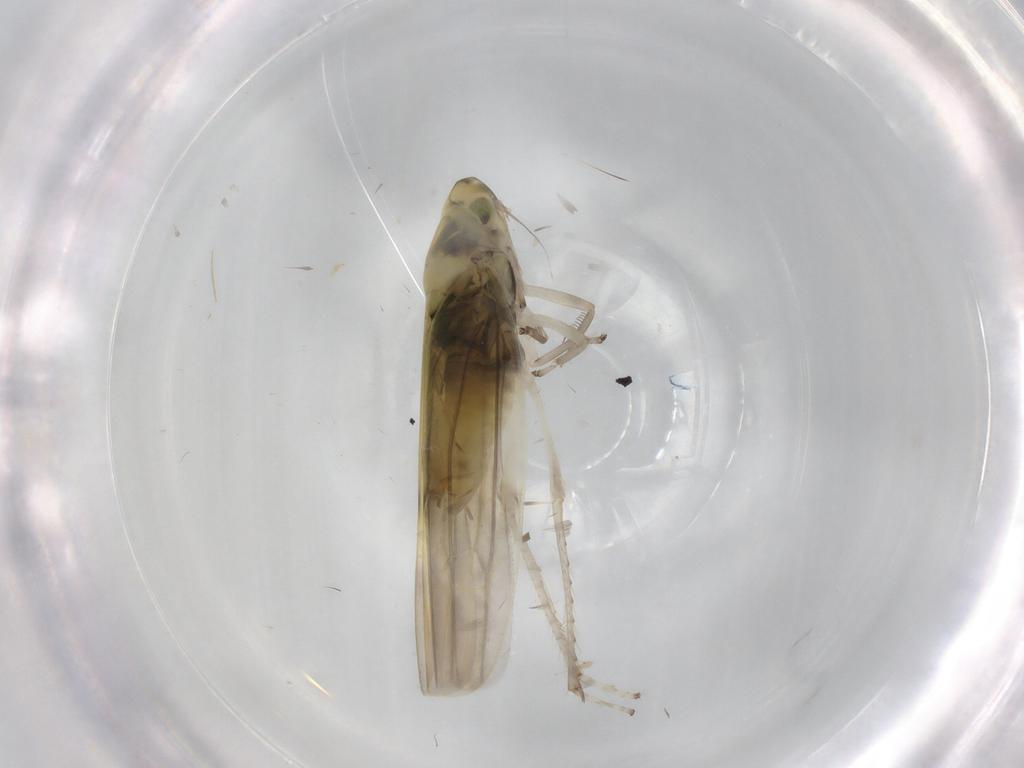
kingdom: Animalia
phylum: Arthropoda
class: Insecta
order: Hemiptera
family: Cicadellidae
